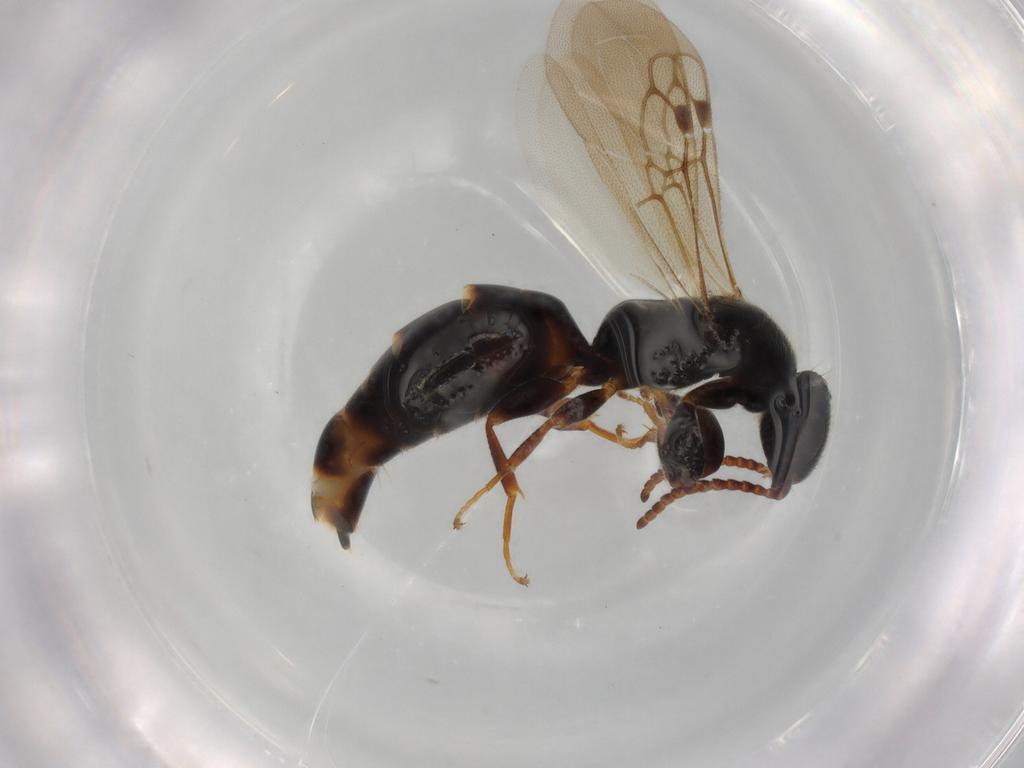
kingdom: Animalia
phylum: Arthropoda
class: Insecta
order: Hymenoptera
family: Bethylidae
